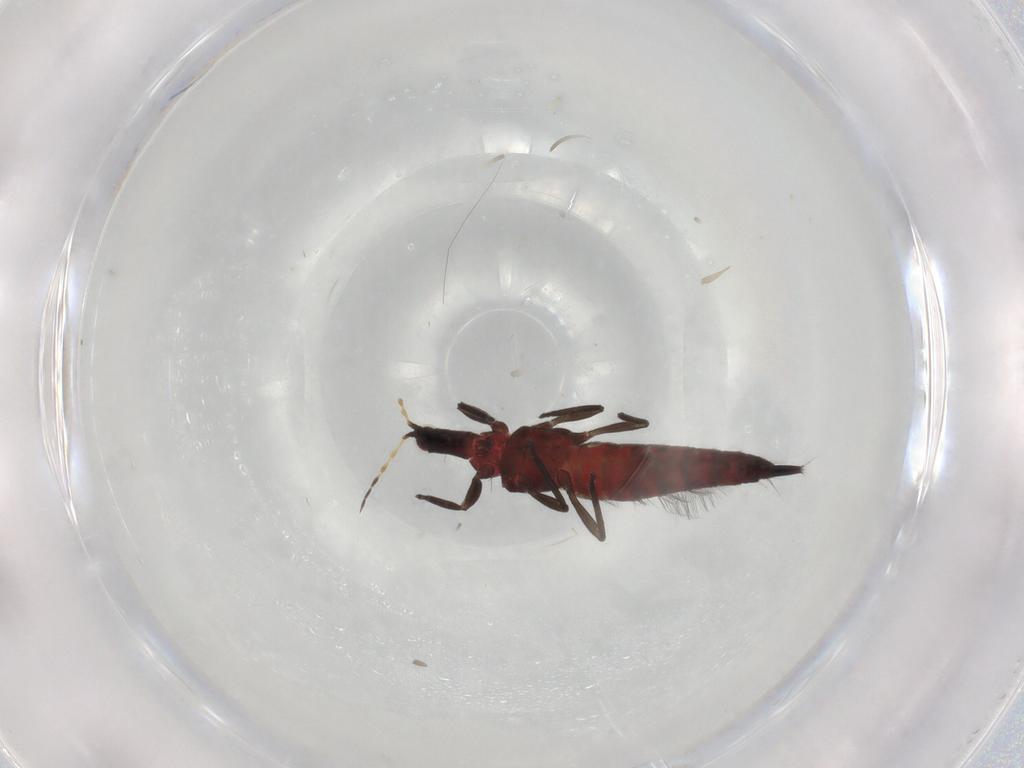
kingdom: Animalia
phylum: Arthropoda
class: Insecta
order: Thysanoptera
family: Phlaeothripidae
